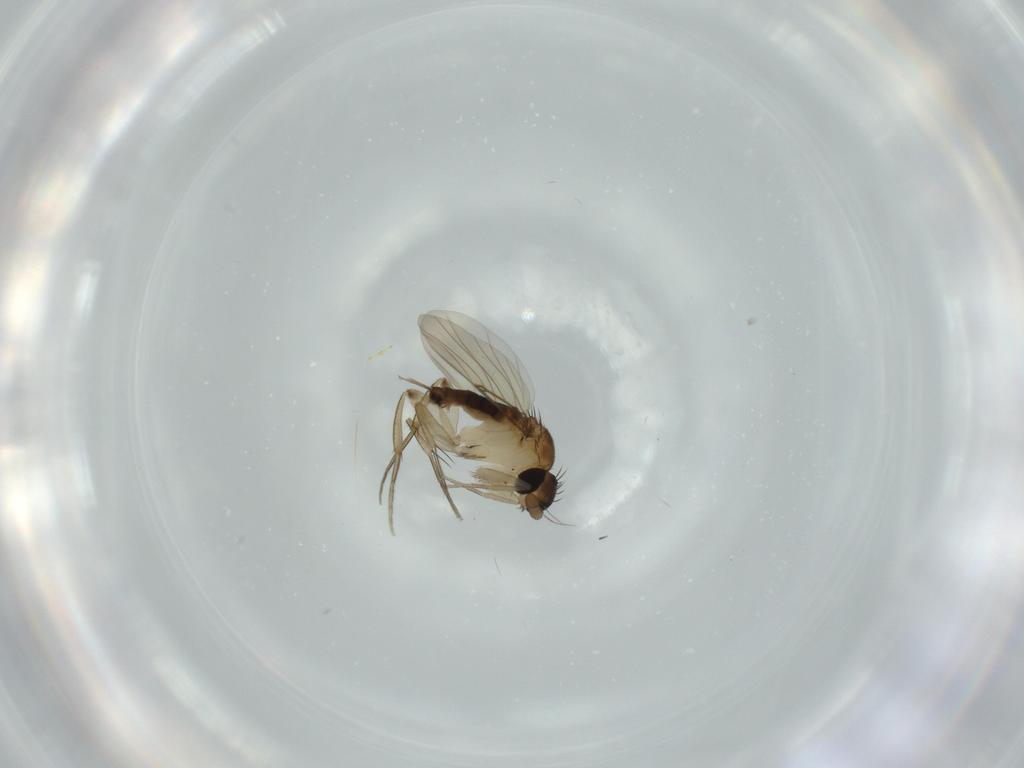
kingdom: Animalia
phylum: Arthropoda
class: Insecta
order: Diptera
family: Phoridae
